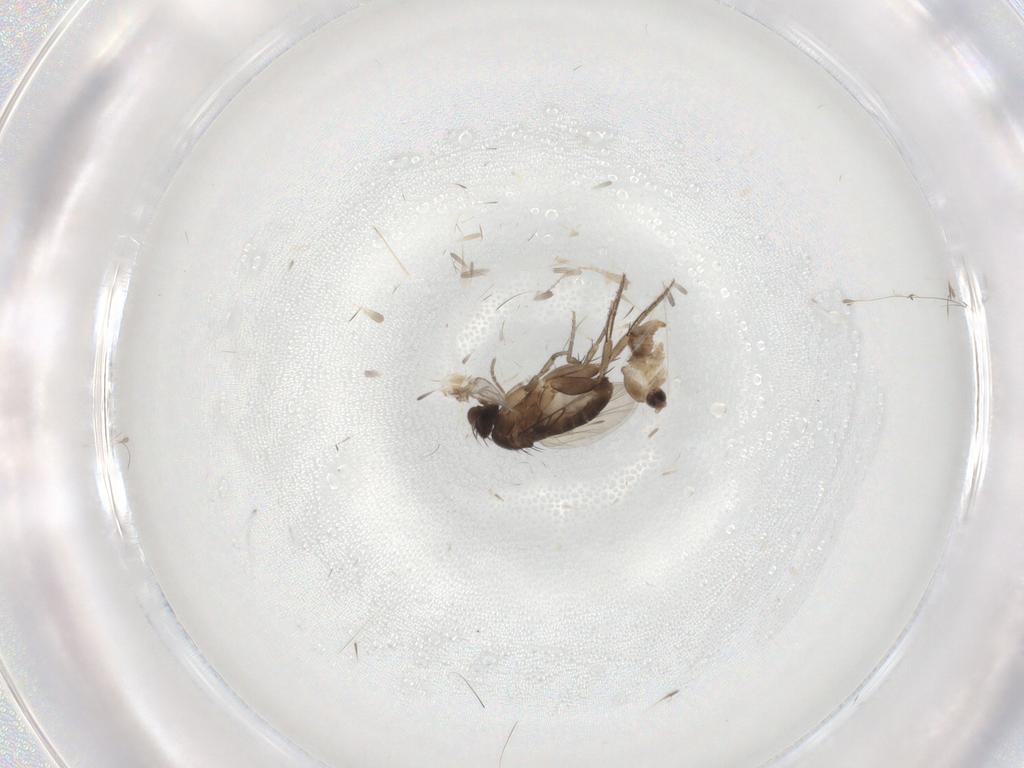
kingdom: Animalia
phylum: Arthropoda
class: Insecta
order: Diptera
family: Phoridae
